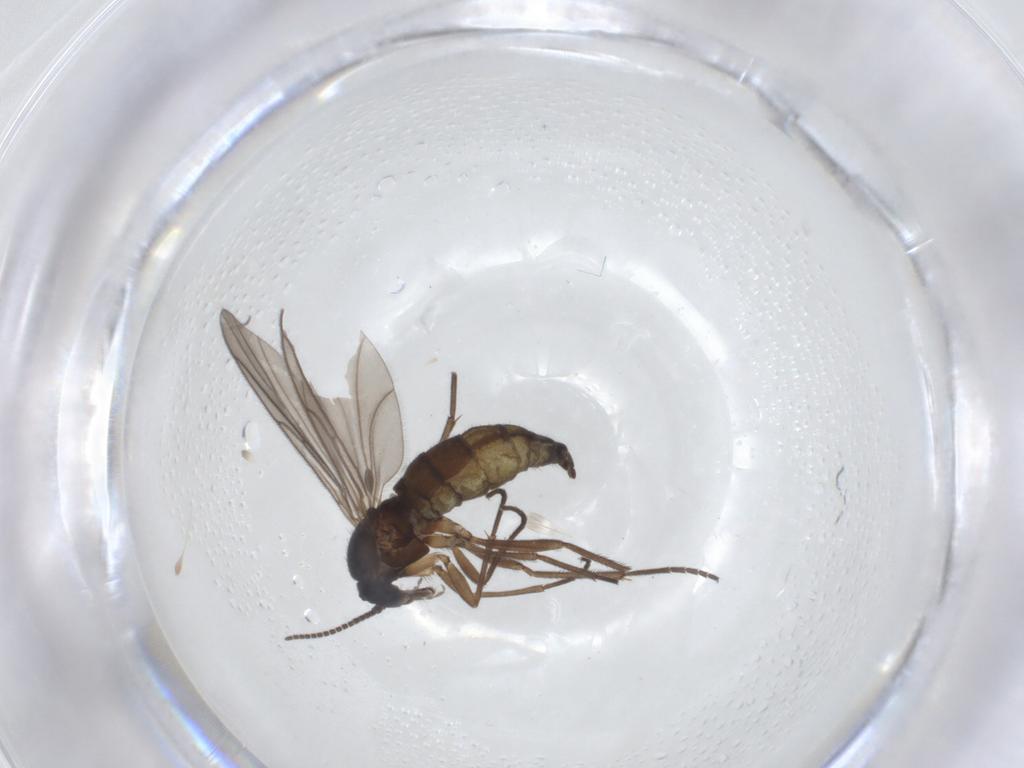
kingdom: Animalia
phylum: Arthropoda
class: Insecta
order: Diptera
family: Sciaridae
